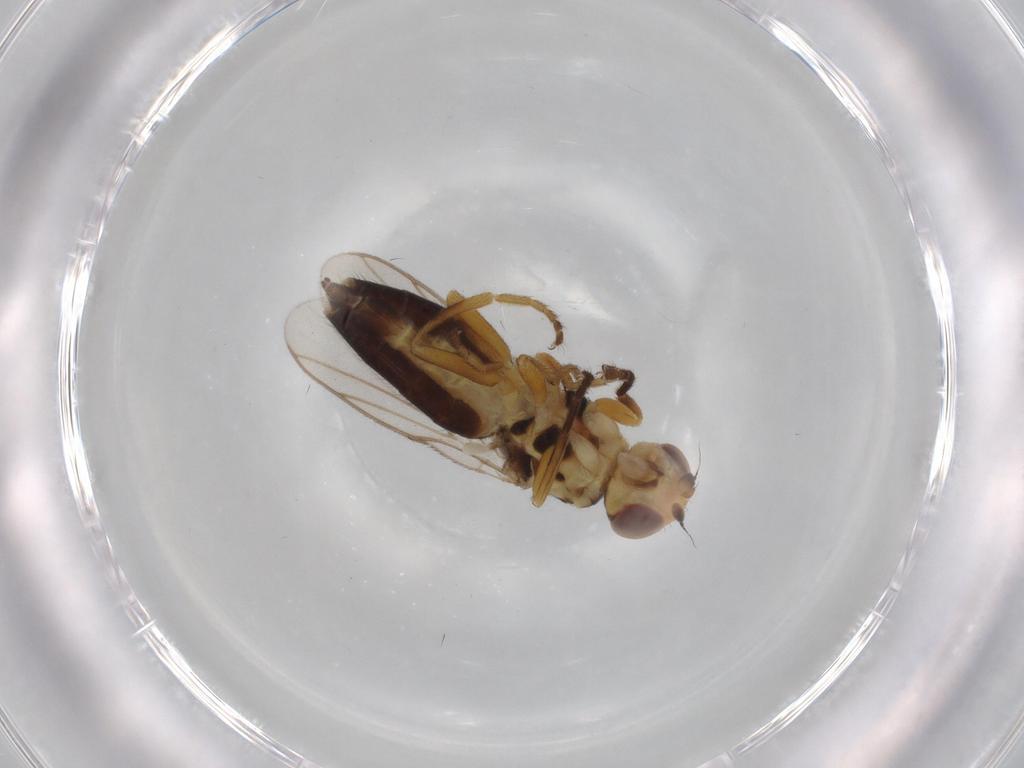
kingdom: Animalia
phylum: Arthropoda
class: Insecta
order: Diptera
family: Chloropidae
